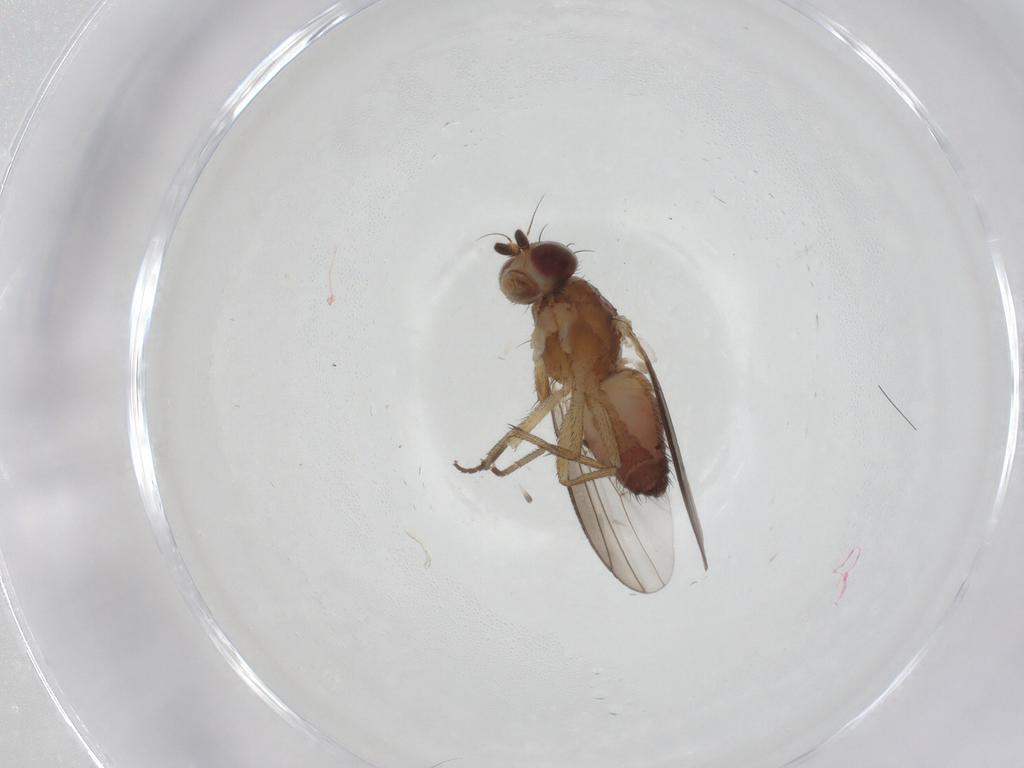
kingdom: Animalia
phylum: Arthropoda
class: Insecta
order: Diptera
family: Heleomyzidae
